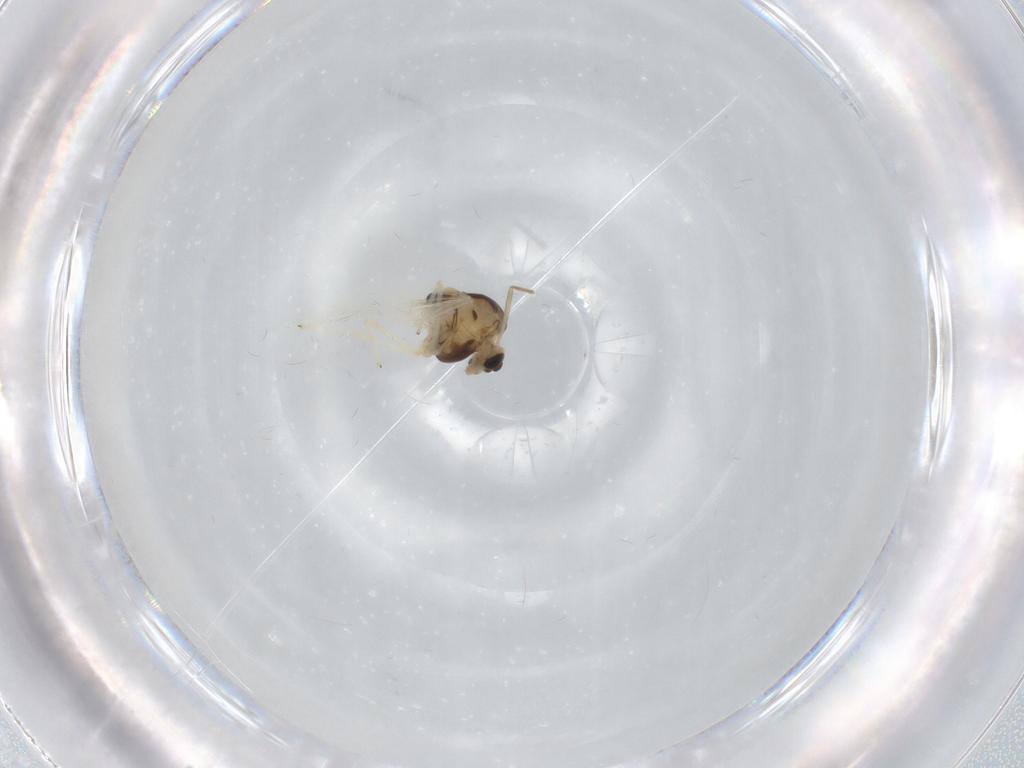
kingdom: Animalia
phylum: Arthropoda
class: Insecta
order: Diptera
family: Chironomidae
